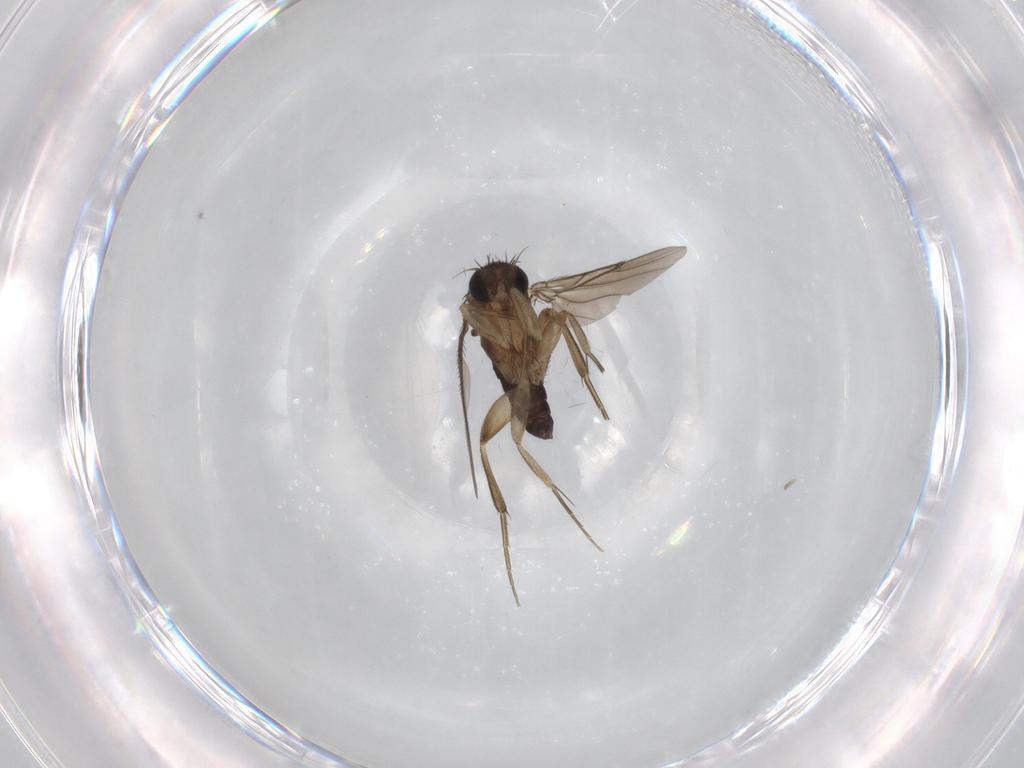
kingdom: Animalia
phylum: Arthropoda
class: Insecta
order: Diptera
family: Phoridae
